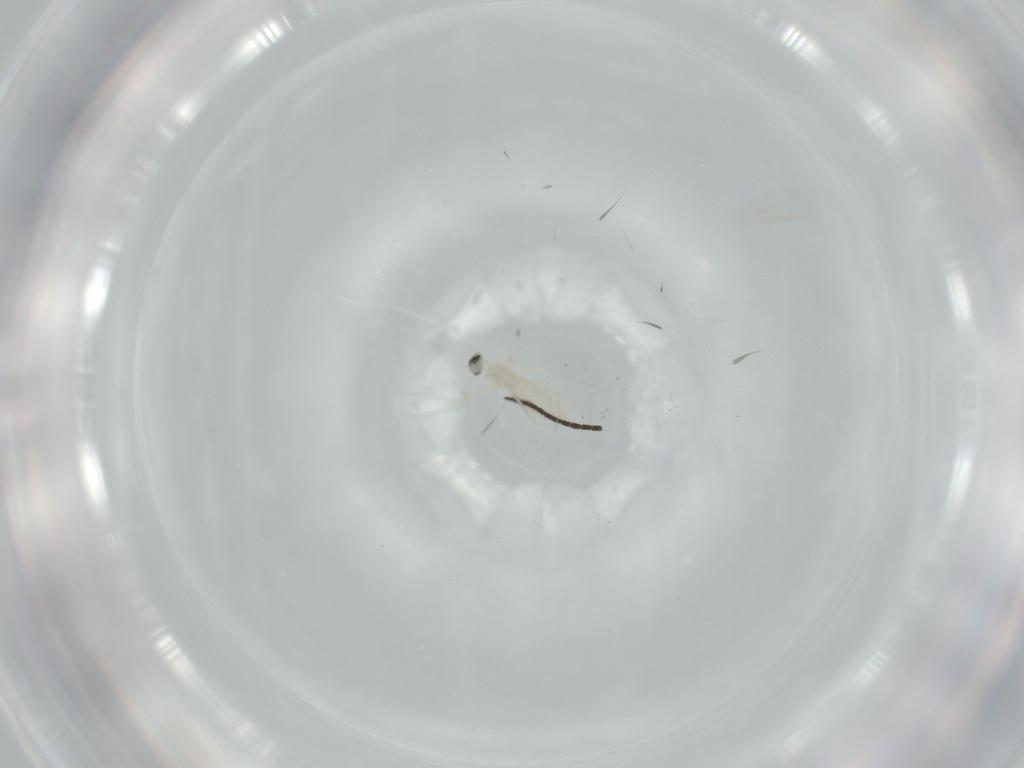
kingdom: Animalia
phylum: Arthropoda
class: Insecta
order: Diptera
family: Cecidomyiidae
